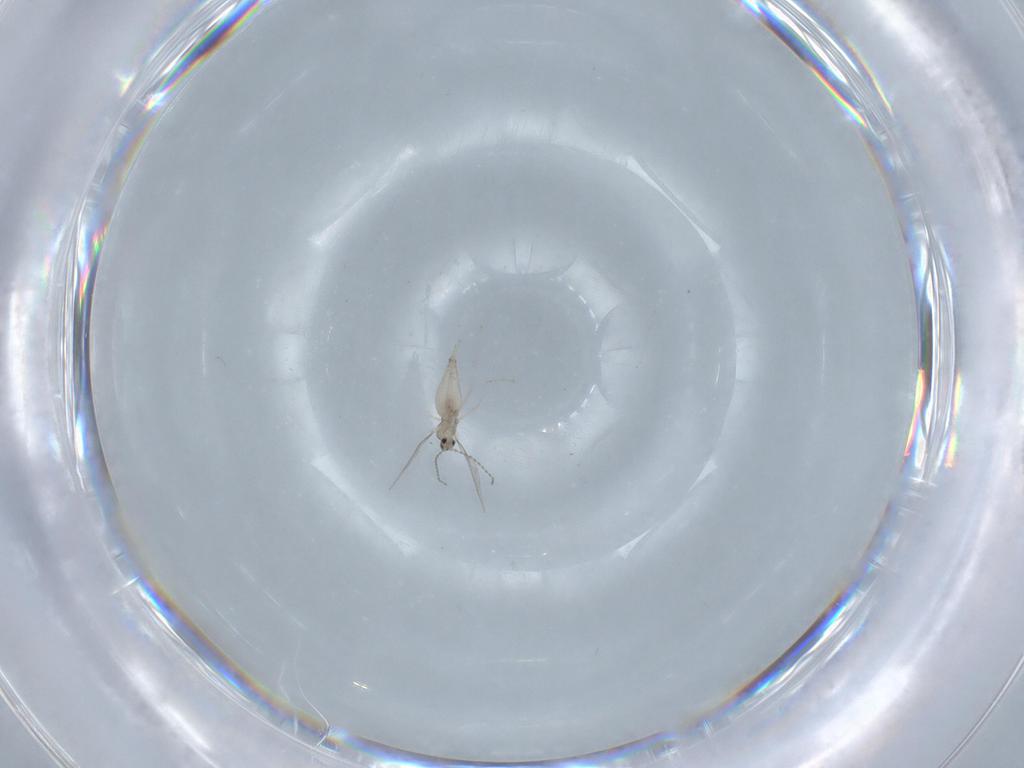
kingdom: Animalia
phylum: Arthropoda
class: Insecta
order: Diptera
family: Cecidomyiidae
